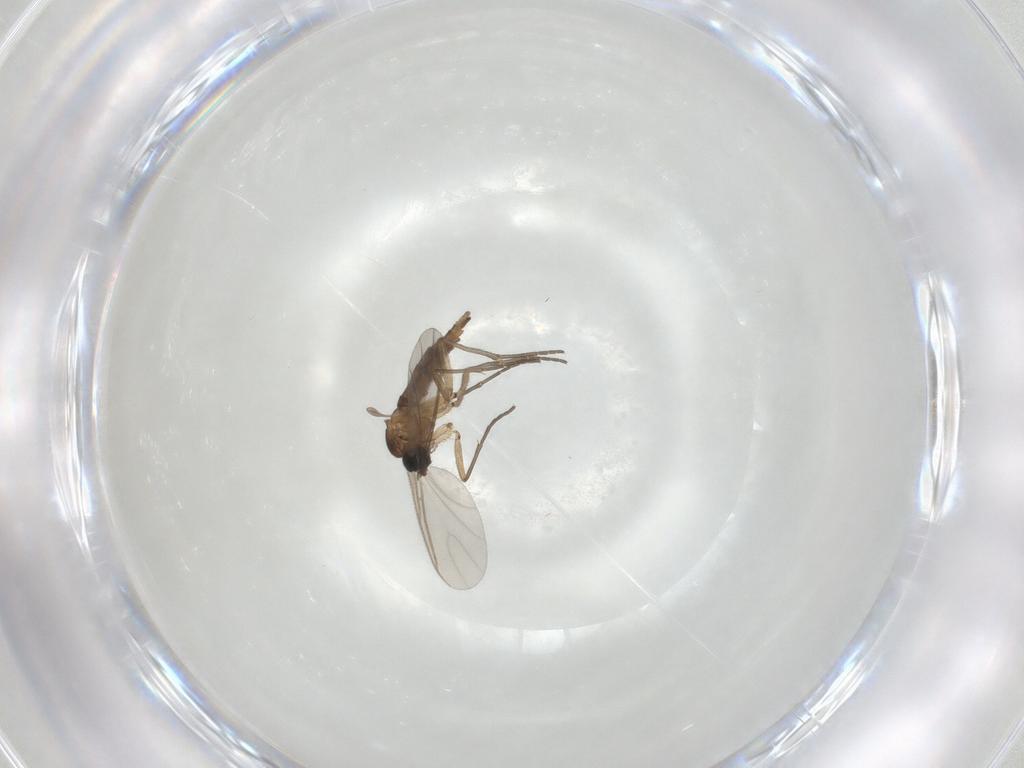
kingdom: Animalia
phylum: Arthropoda
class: Insecta
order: Diptera
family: Sciaridae
